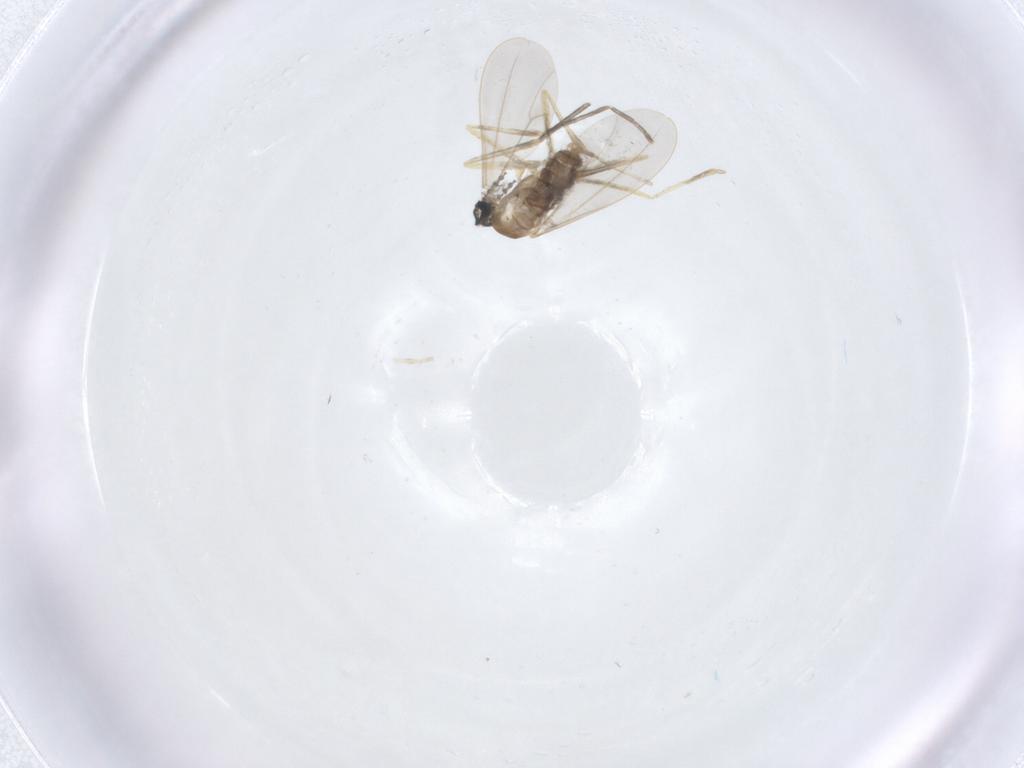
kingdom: Animalia
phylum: Arthropoda
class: Insecta
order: Diptera
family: Cecidomyiidae
